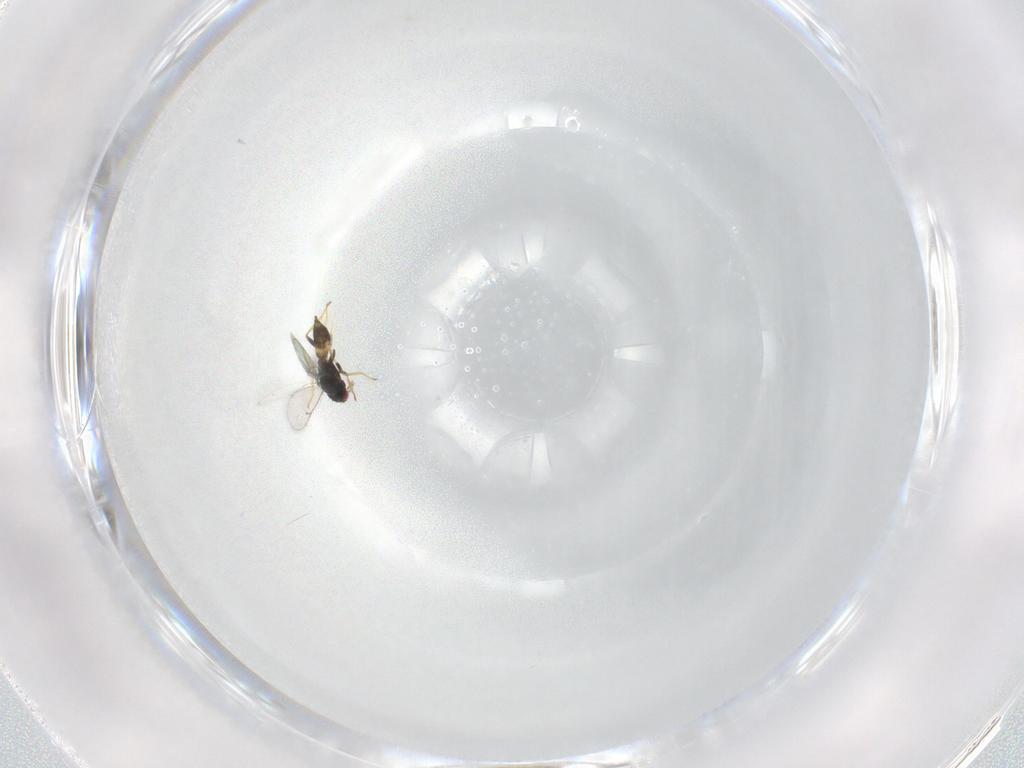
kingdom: Animalia
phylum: Arthropoda
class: Insecta
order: Hymenoptera
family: Eulophidae
